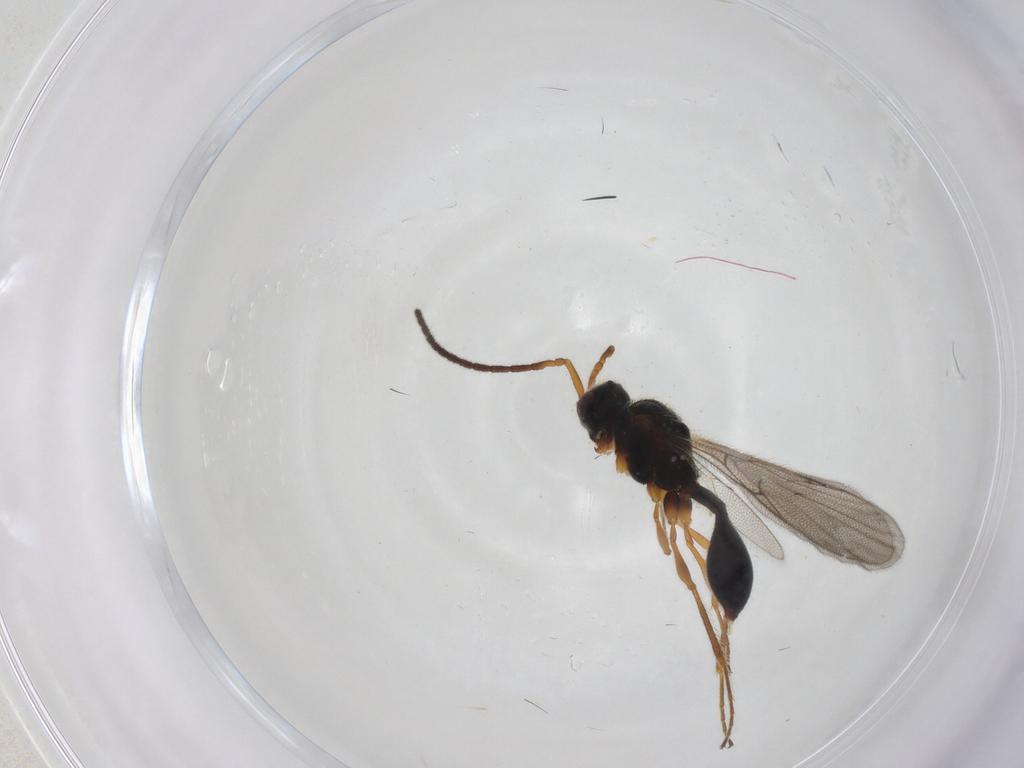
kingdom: Animalia
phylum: Arthropoda
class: Insecta
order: Hymenoptera
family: Diapriidae
